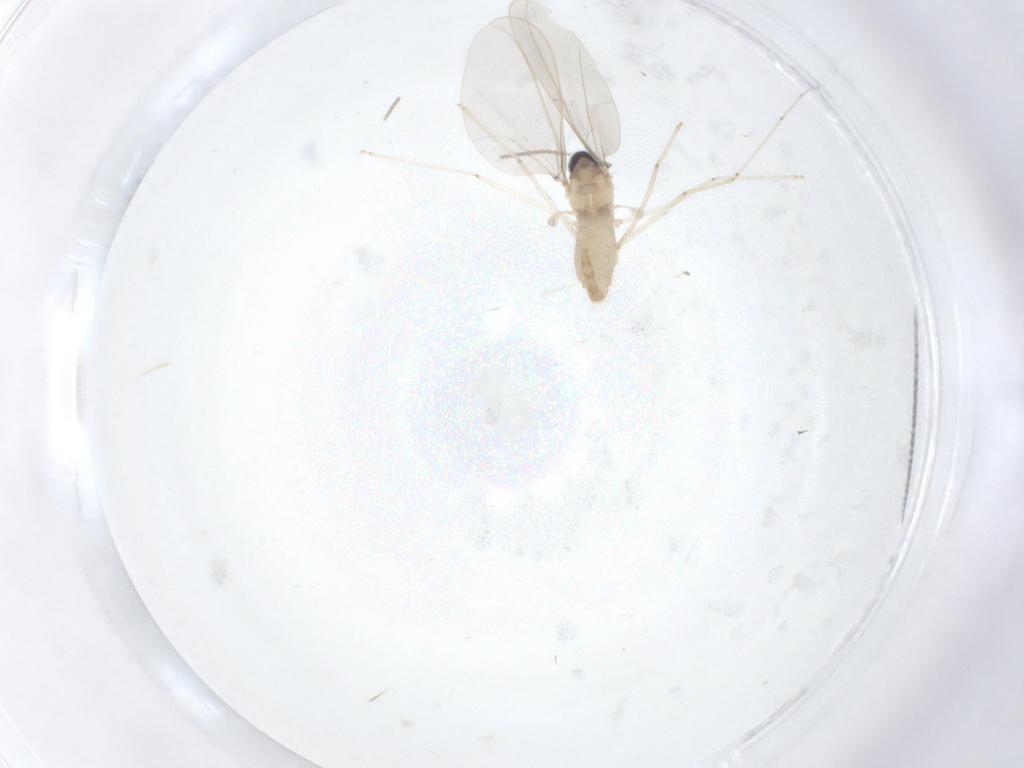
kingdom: Animalia
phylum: Arthropoda
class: Insecta
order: Diptera
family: Cecidomyiidae
